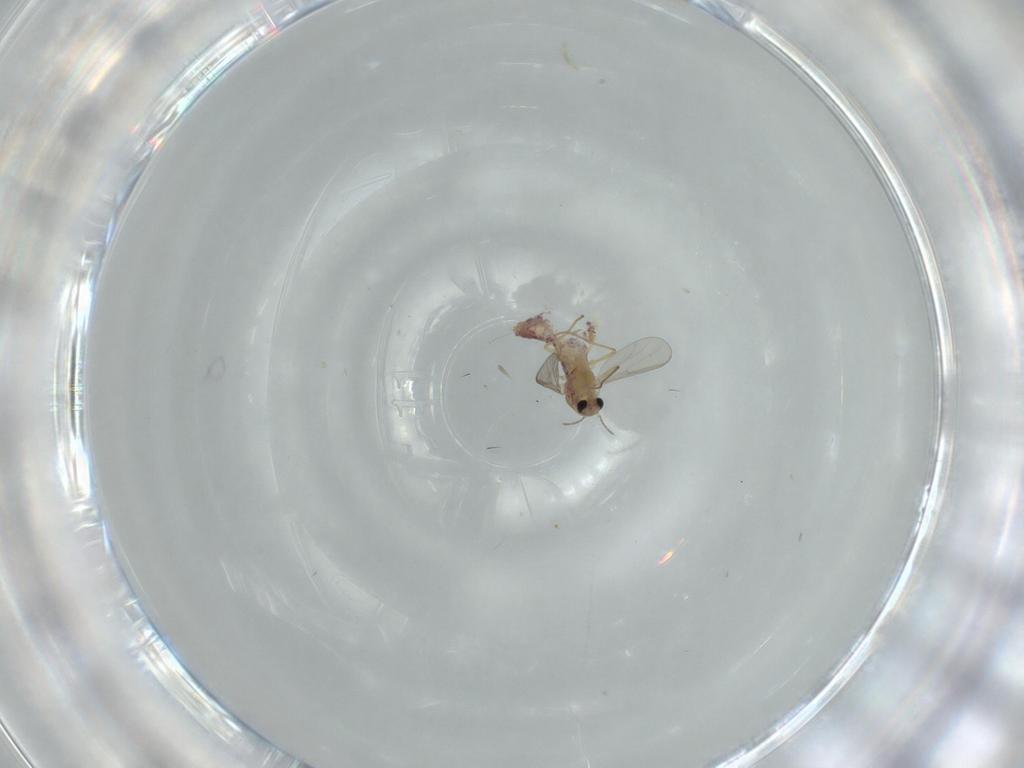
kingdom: Animalia
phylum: Arthropoda
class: Insecta
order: Diptera
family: Chironomidae
